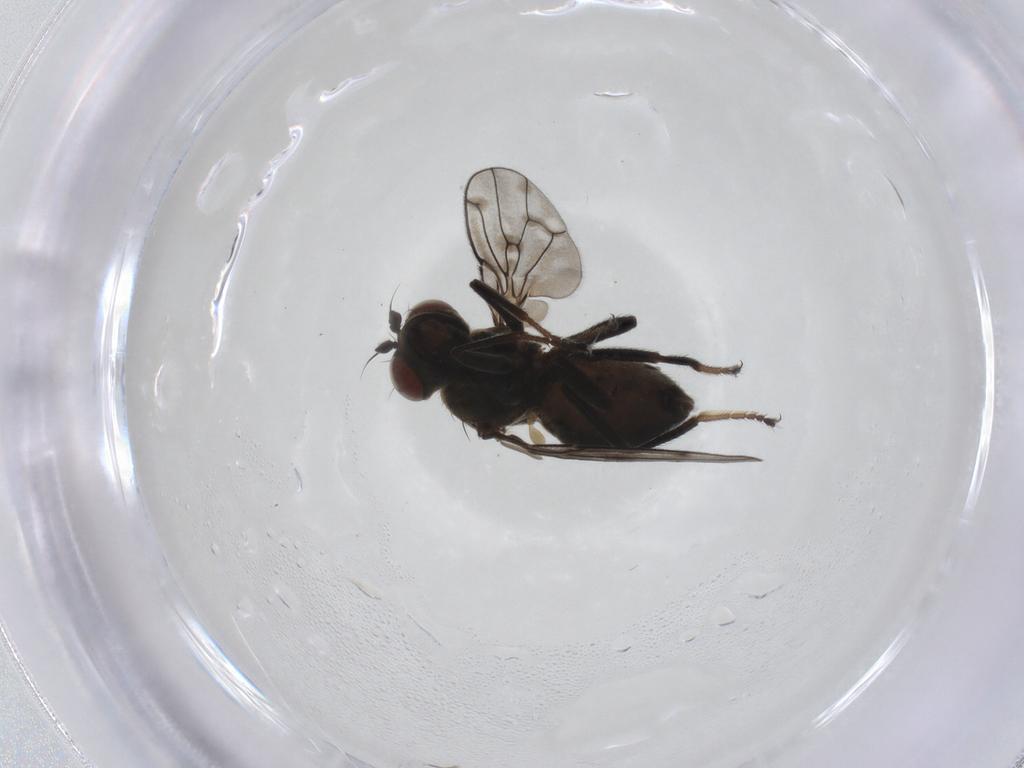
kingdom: Animalia
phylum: Arthropoda
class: Insecta
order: Diptera
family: Ephydridae
